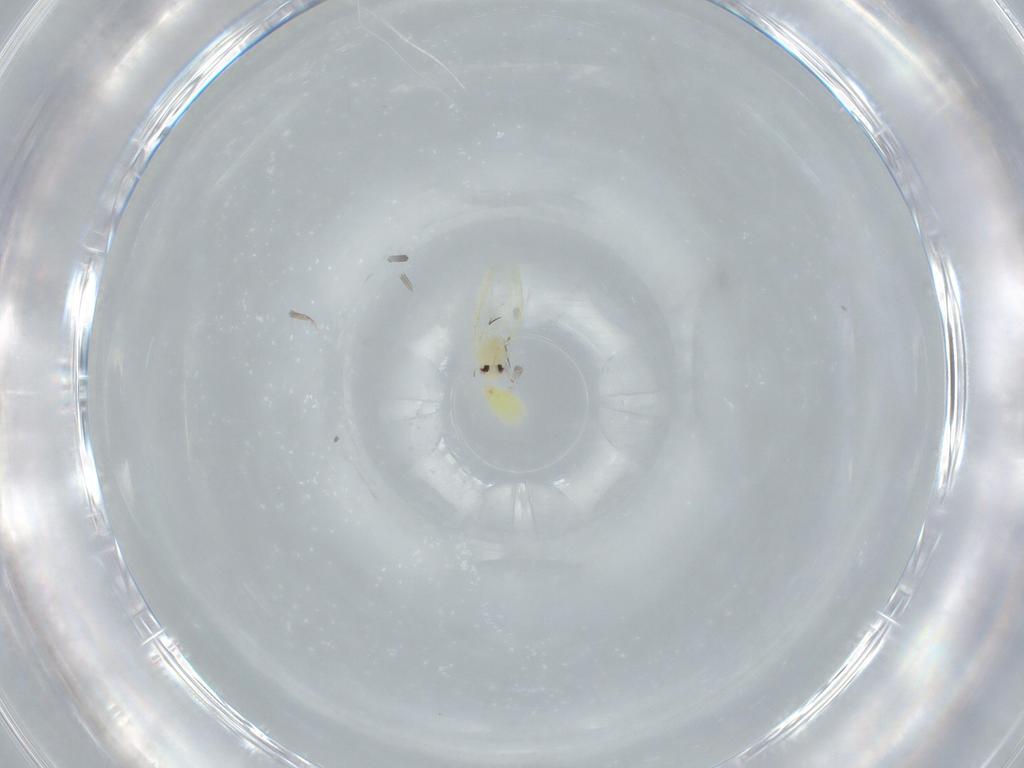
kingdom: Animalia
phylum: Arthropoda
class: Insecta
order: Hemiptera
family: Aleyrodidae
